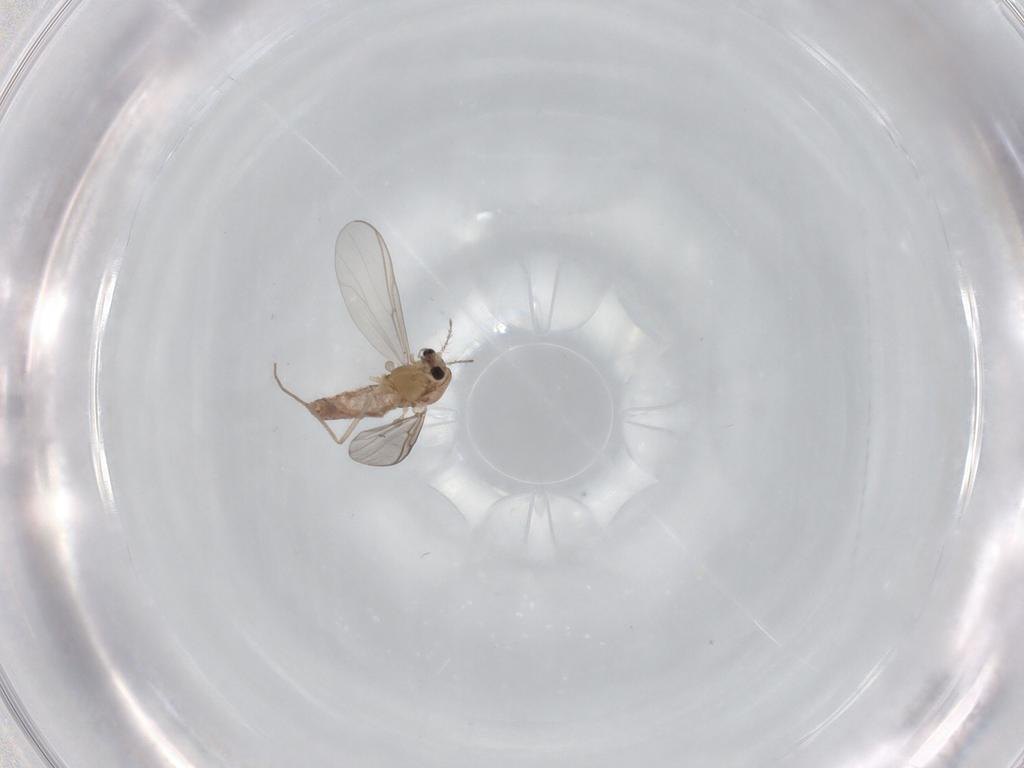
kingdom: Animalia
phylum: Arthropoda
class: Insecta
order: Diptera
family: Chironomidae
